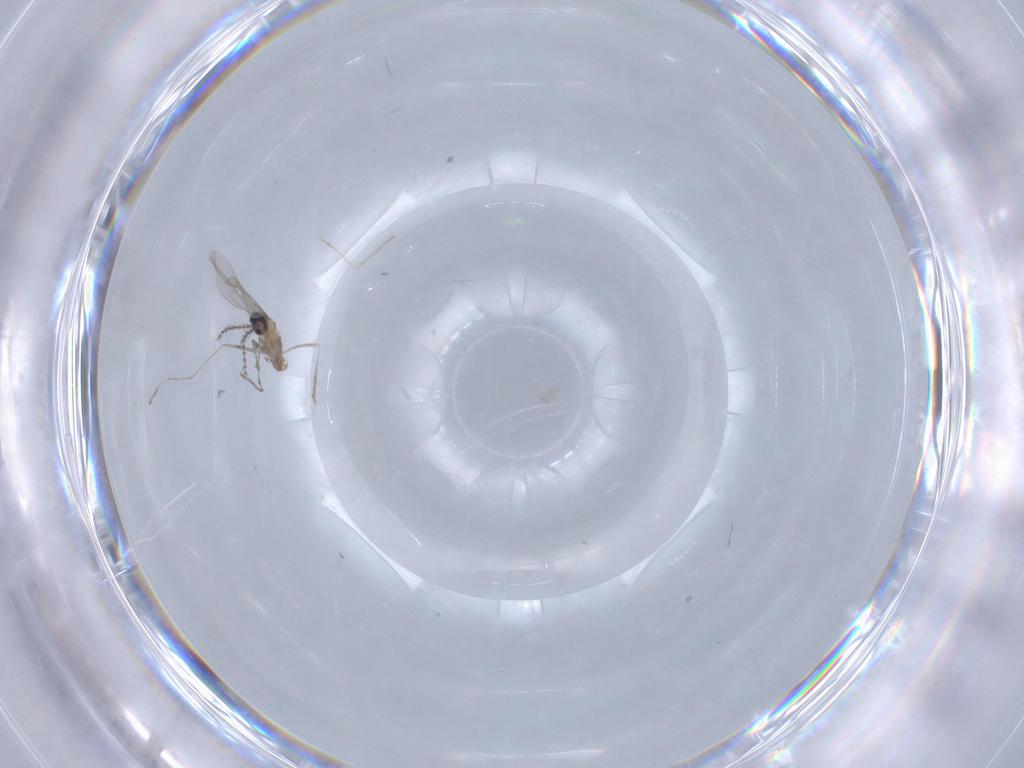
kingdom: Animalia
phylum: Arthropoda
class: Insecta
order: Diptera
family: Cecidomyiidae
